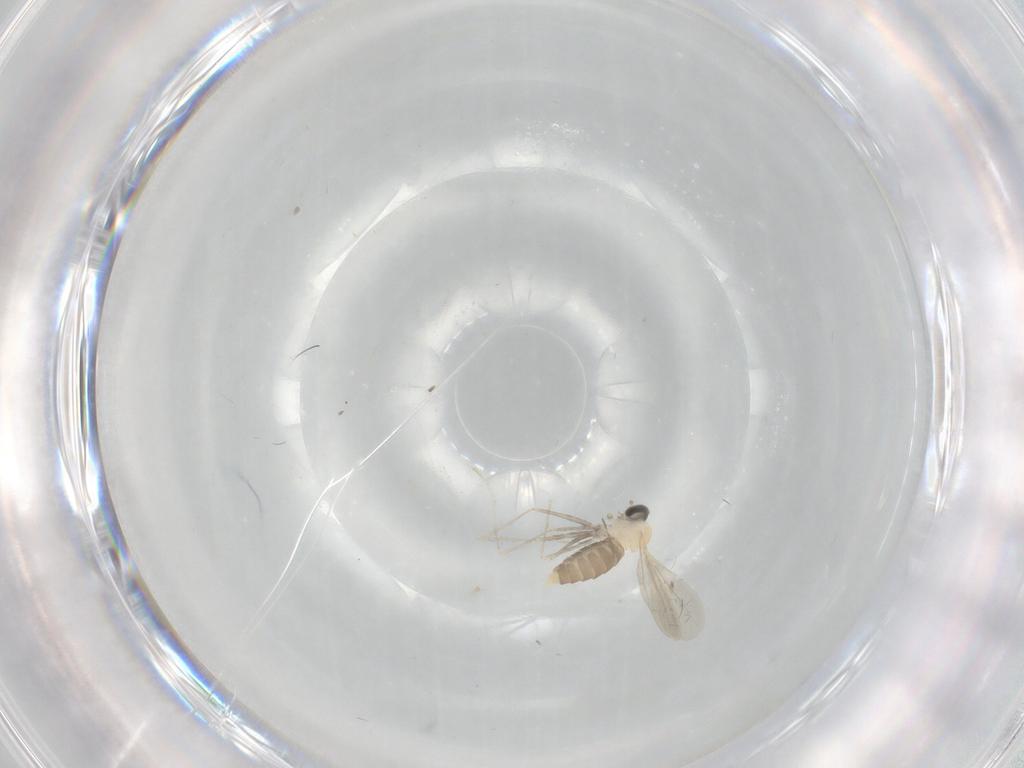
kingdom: Animalia
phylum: Arthropoda
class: Insecta
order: Diptera
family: Cecidomyiidae
